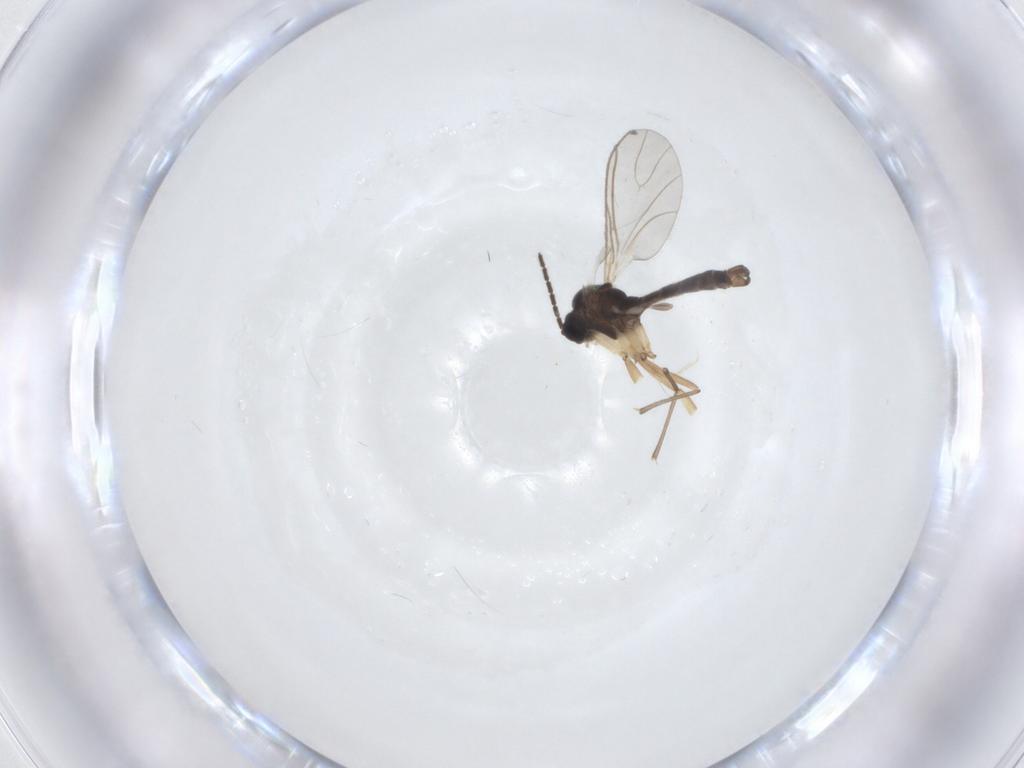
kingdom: Animalia
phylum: Arthropoda
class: Insecta
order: Diptera
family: Sciaridae
